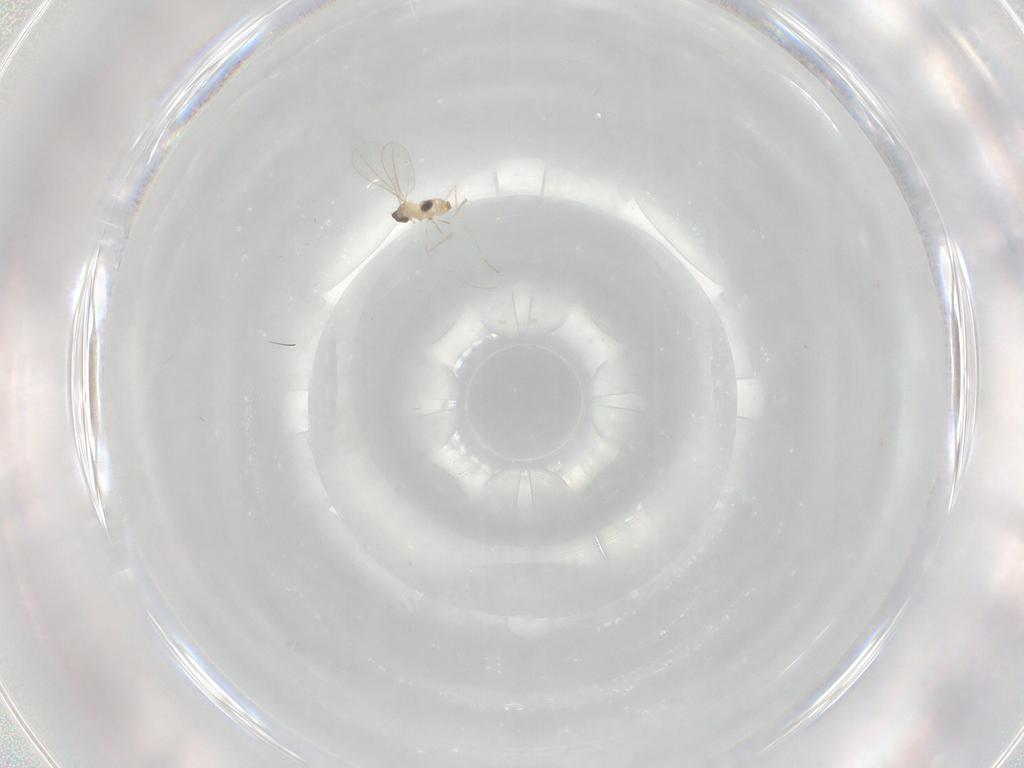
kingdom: Animalia
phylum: Arthropoda
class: Insecta
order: Diptera
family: Cecidomyiidae
